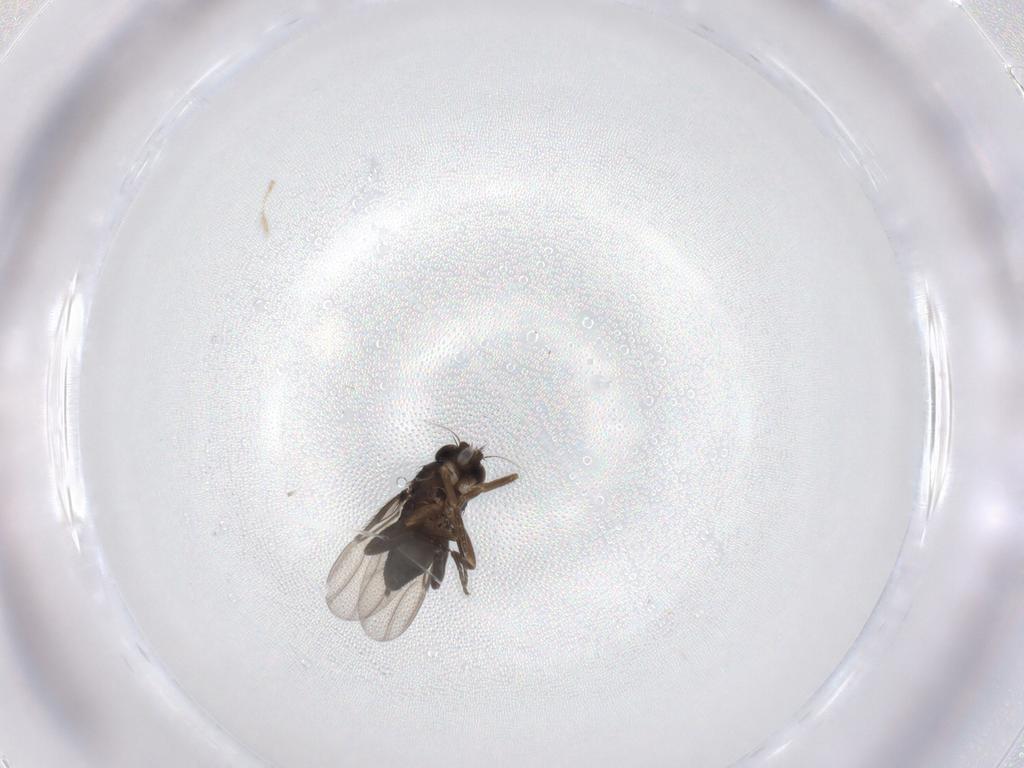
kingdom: Animalia
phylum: Arthropoda
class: Insecta
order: Diptera
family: Phoridae
